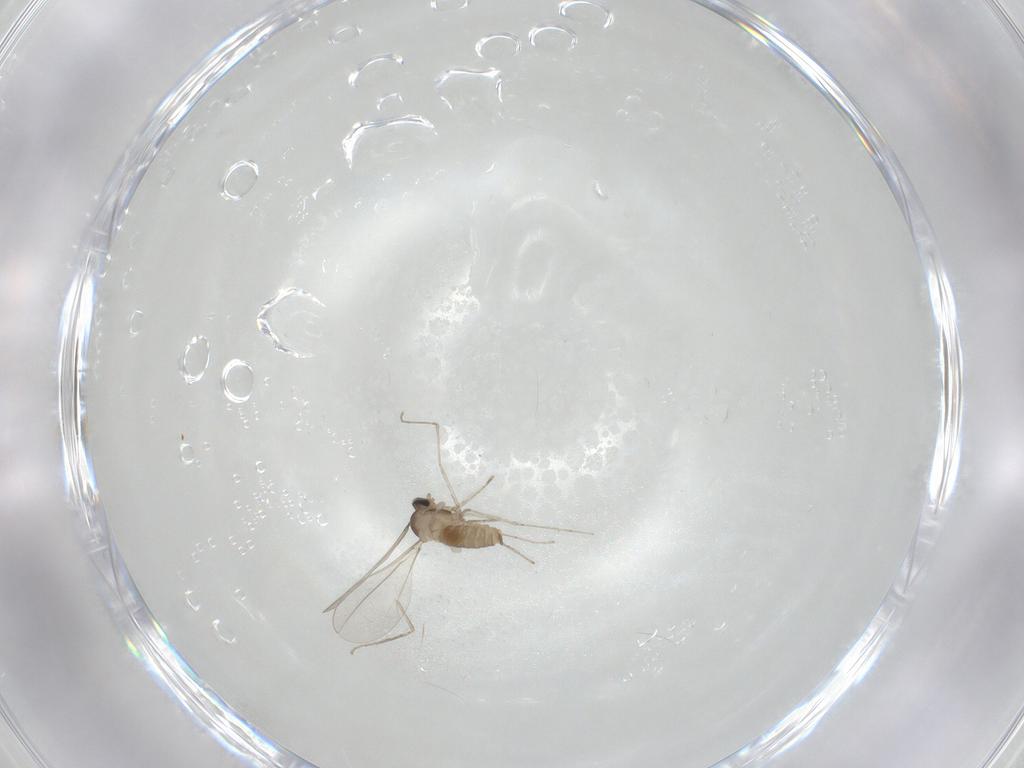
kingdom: Animalia
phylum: Arthropoda
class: Insecta
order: Diptera
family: Cecidomyiidae
